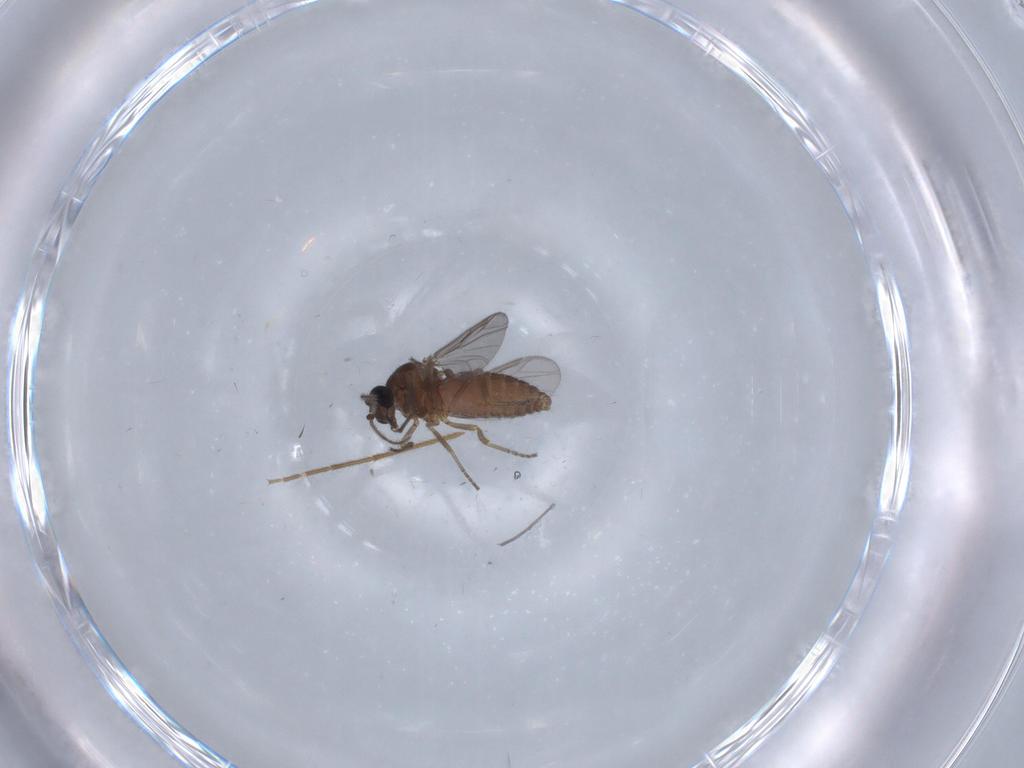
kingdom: Animalia
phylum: Arthropoda
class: Insecta
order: Diptera
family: Ceratopogonidae
